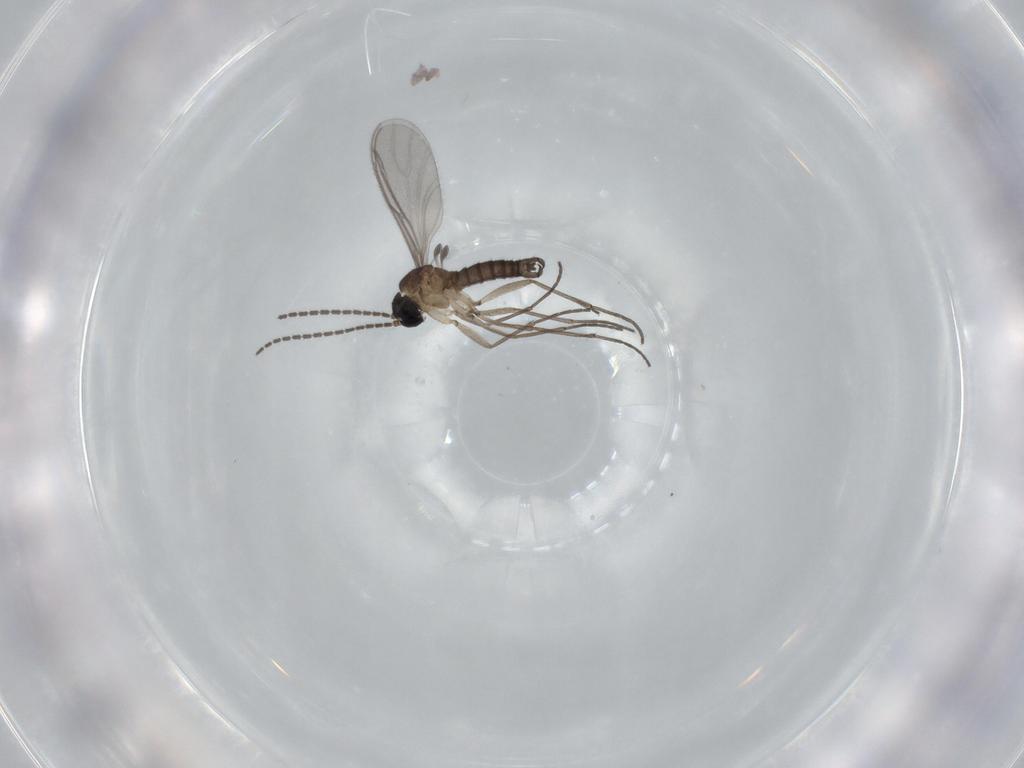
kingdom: Animalia
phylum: Arthropoda
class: Insecta
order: Diptera
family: Sciaridae
